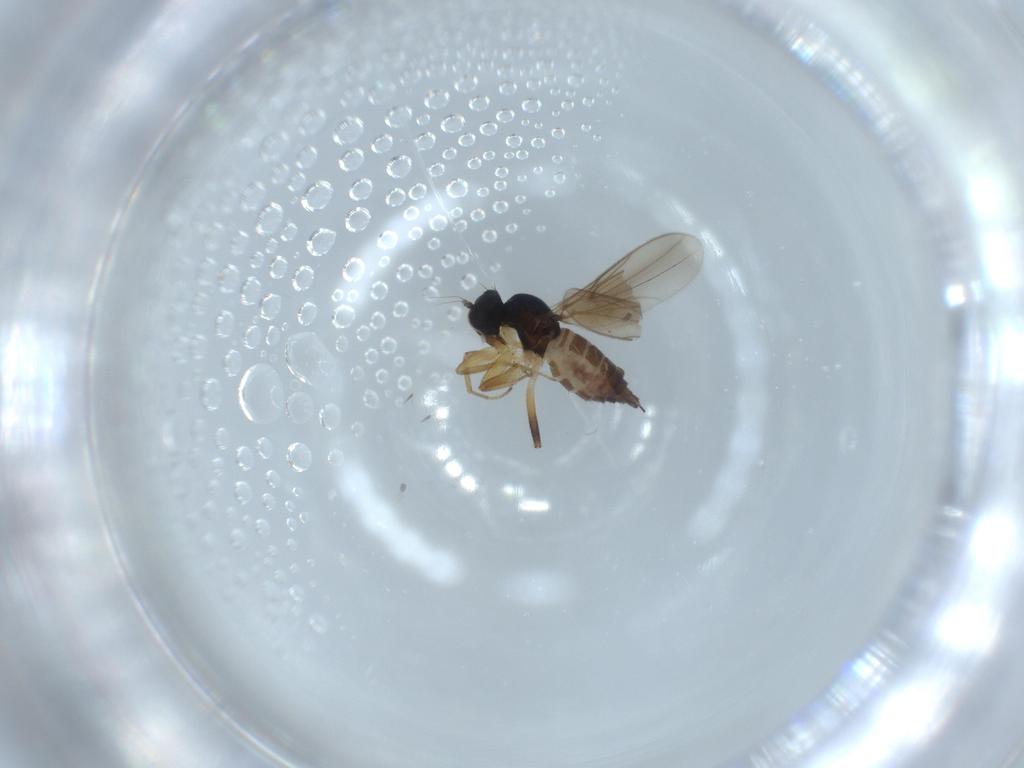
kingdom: Animalia
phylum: Arthropoda
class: Insecta
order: Diptera
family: Hybotidae
